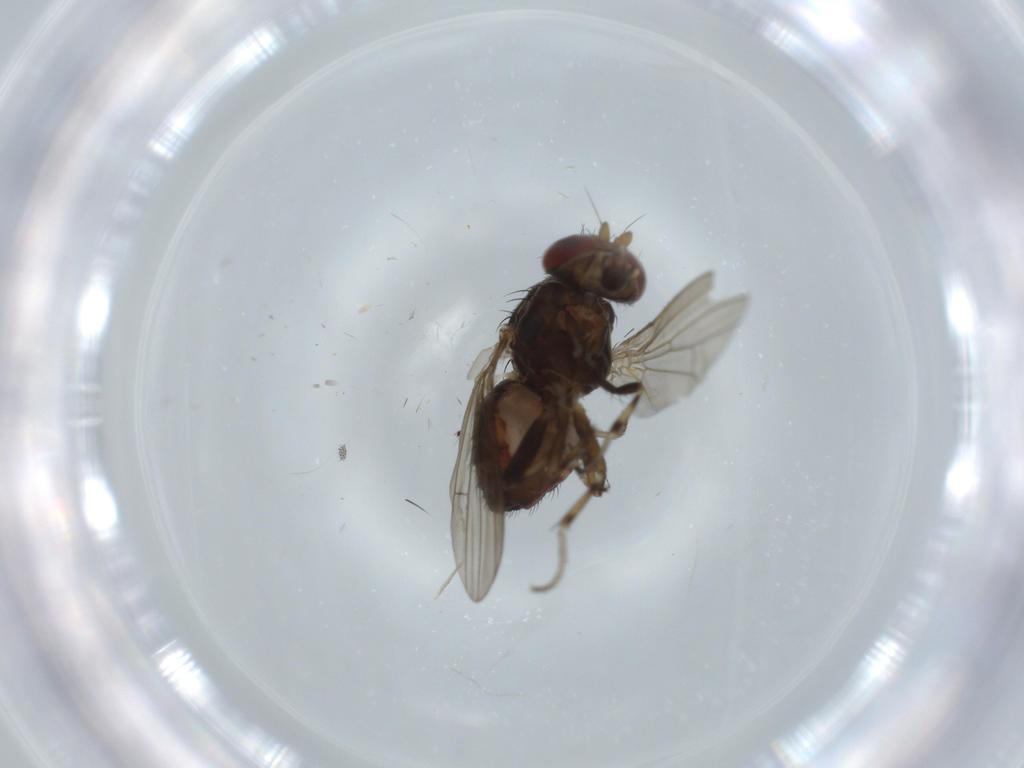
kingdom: Animalia
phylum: Arthropoda
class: Insecta
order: Diptera
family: Heleomyzidae
